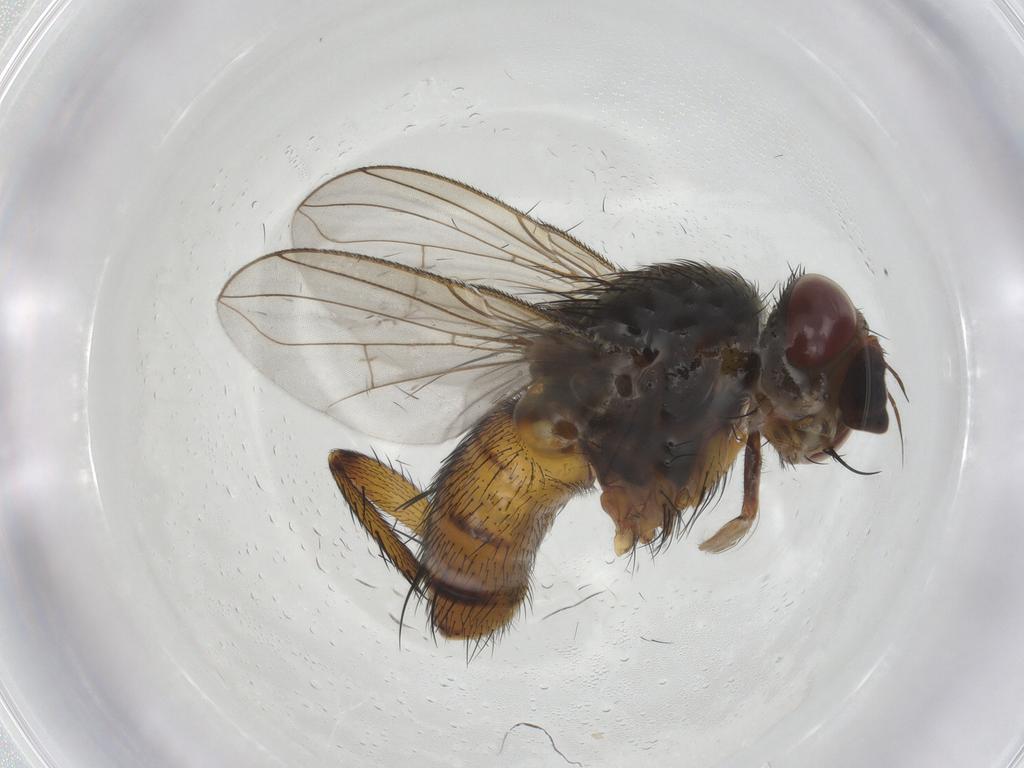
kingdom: Animalia
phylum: Arthropoda
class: Insecta
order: Diptera
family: Tachinidae
